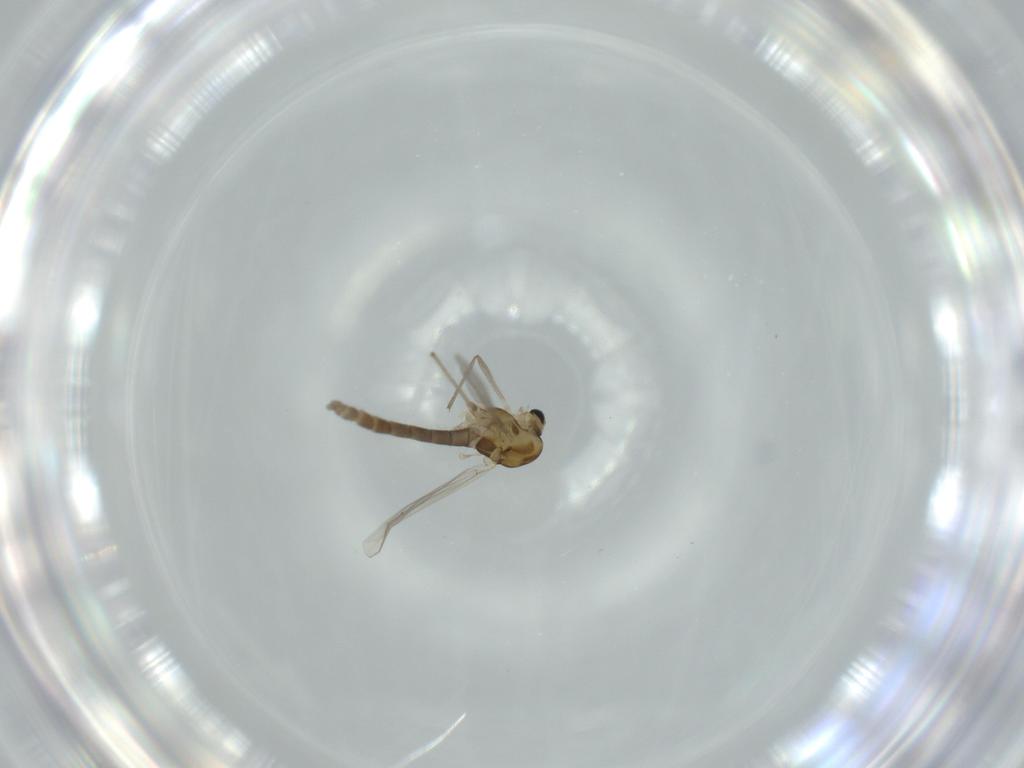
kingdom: Animalia
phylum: Arthropoda
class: Insecta
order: Diptera
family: Chironomidae
